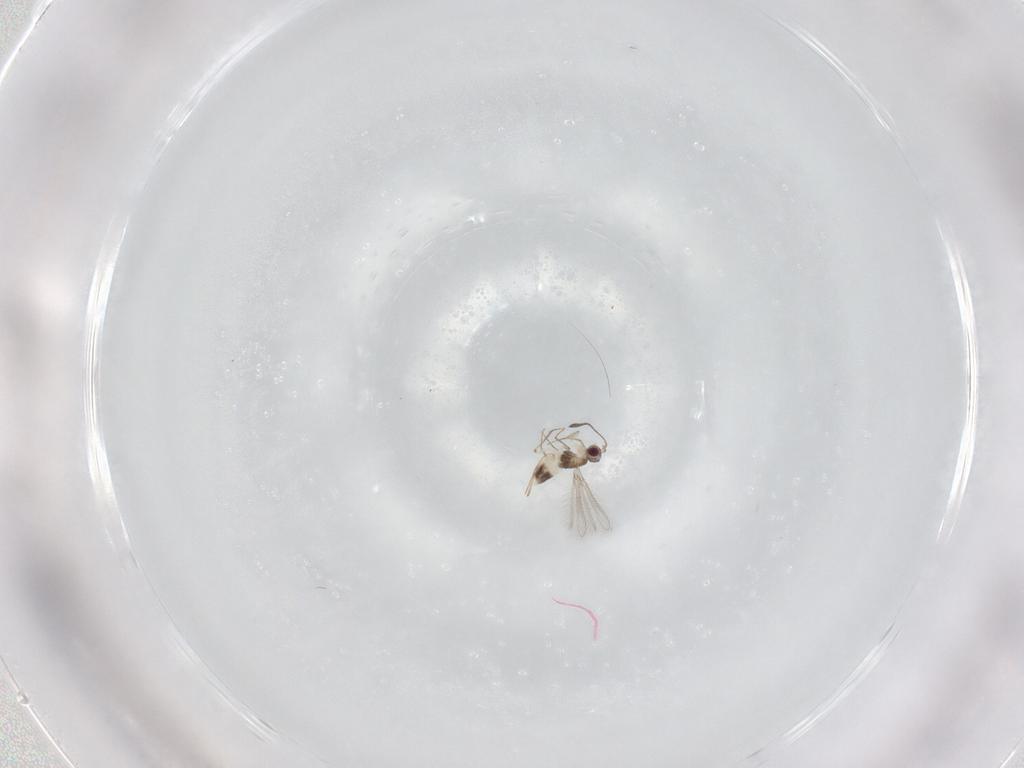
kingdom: Animalia
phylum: Arthropoda
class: Insecta
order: Hymenoptera
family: Mymaridae
